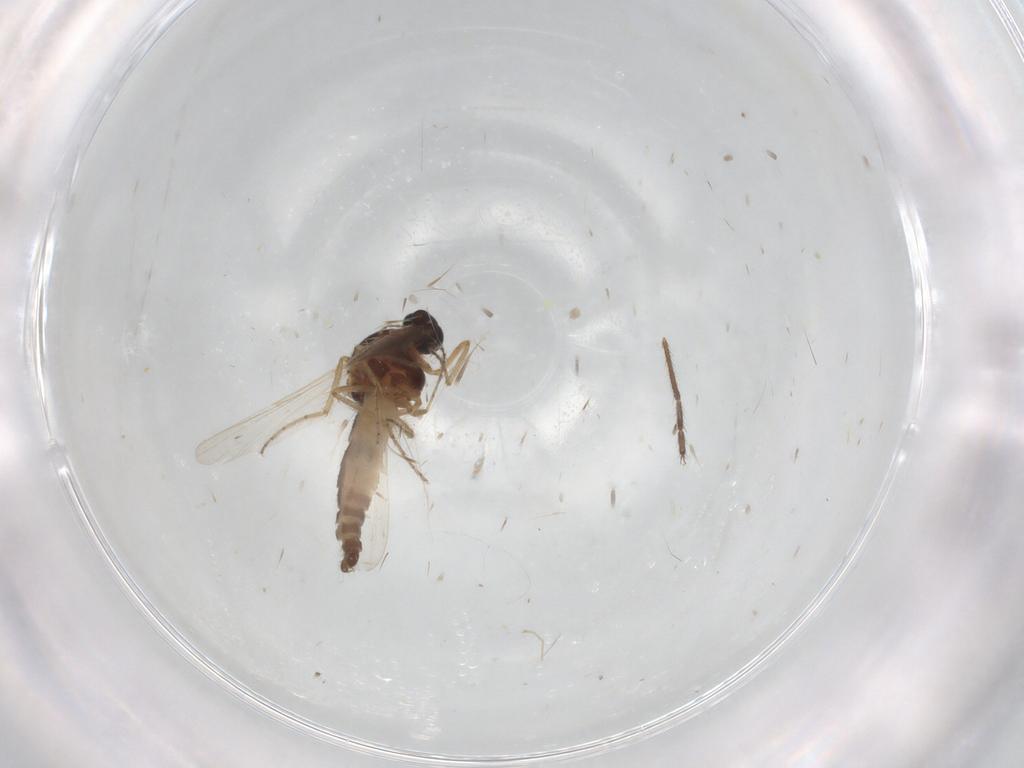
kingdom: Animalia
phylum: Arthropoda
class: Insecta
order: Diptera
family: Ceratopogonidae
